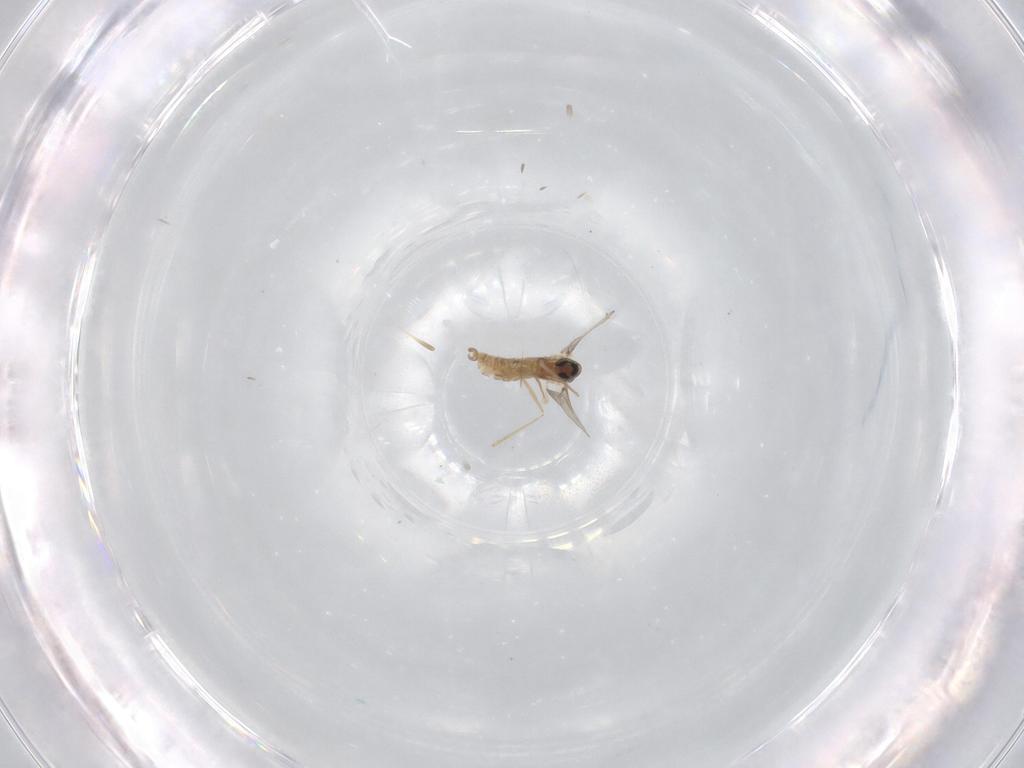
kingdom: Animalia
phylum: Arthropoda
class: Insecta
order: Diptera
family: Cecidomyiidae
